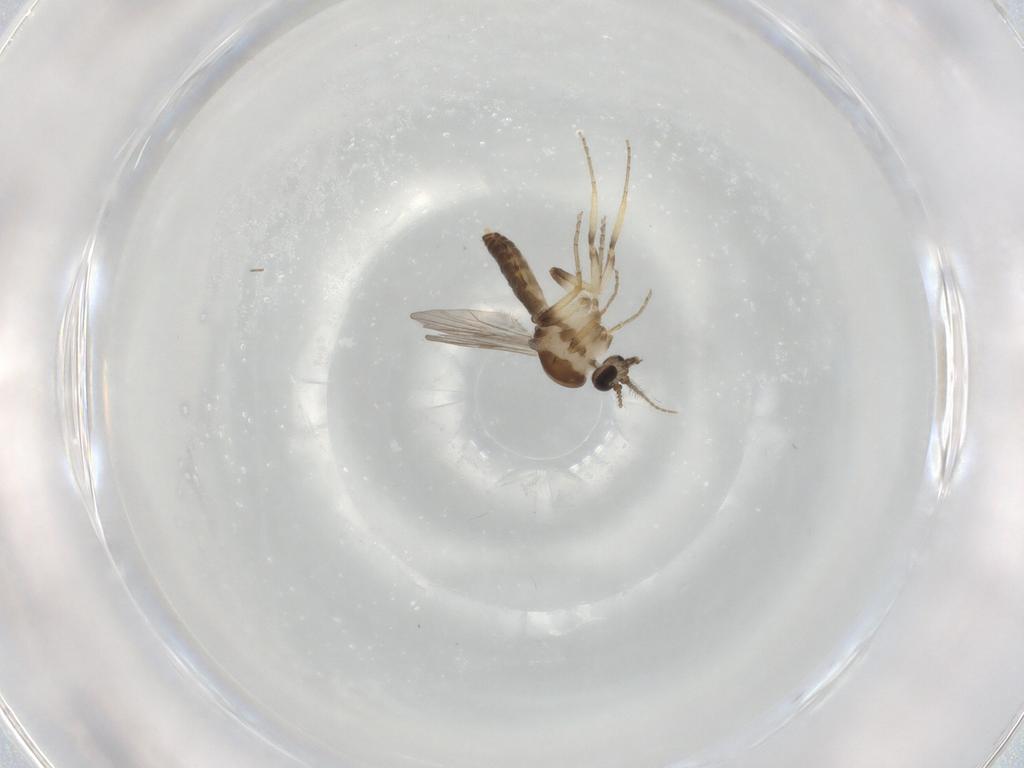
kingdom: Animalia
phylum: Arthropoda
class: Insecta
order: Diptera
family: Ceratopogonidae
